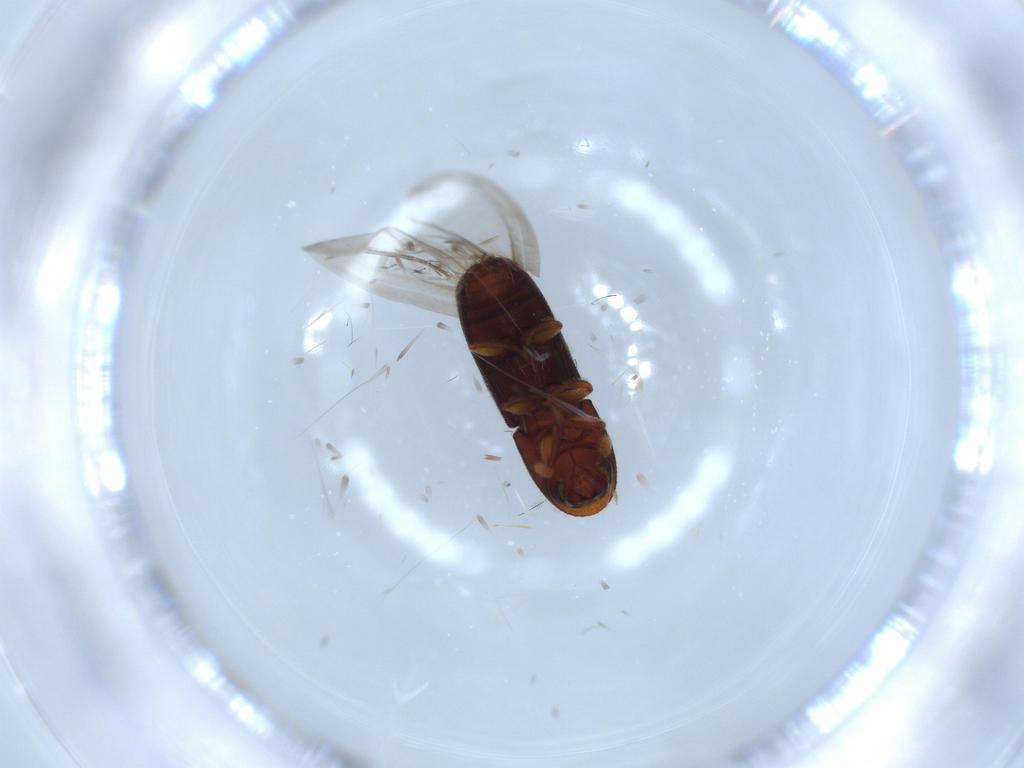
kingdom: Animalia
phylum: Arthropoda
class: Insecta
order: Coleoptera
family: Curculionidae
